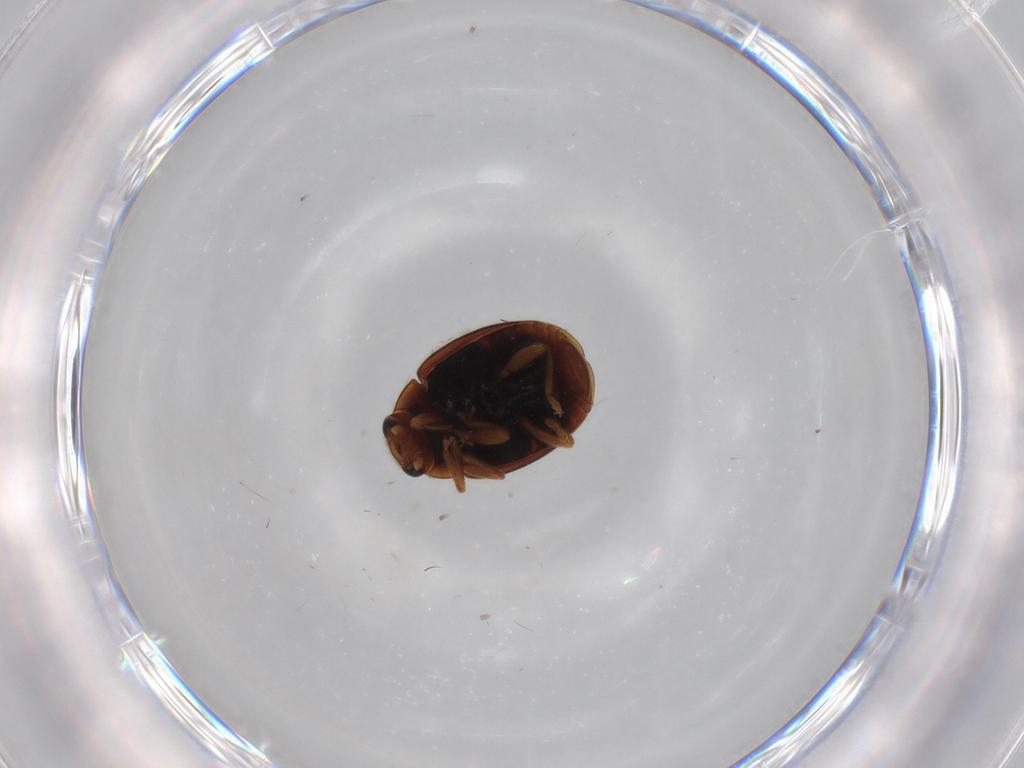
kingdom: Animalia
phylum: Arthropoda
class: Insecta
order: Coleoptera
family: Coccinellidae
